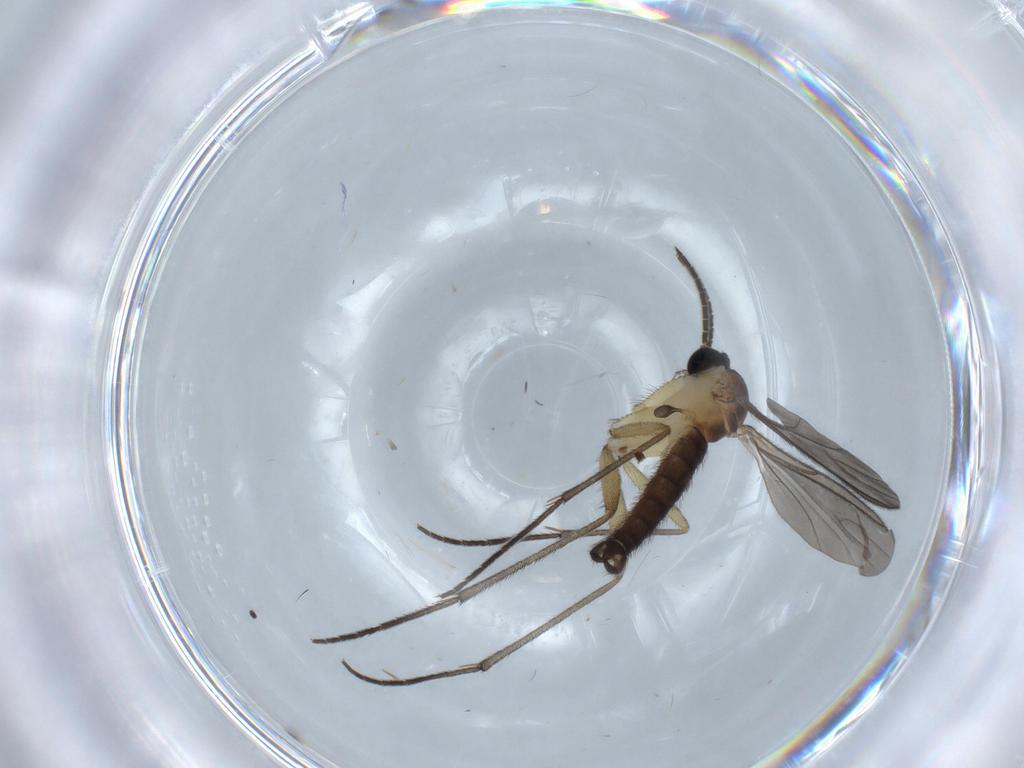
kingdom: Animalia
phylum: Arthropoda
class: Insecta
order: Diptera
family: Sciaridae
